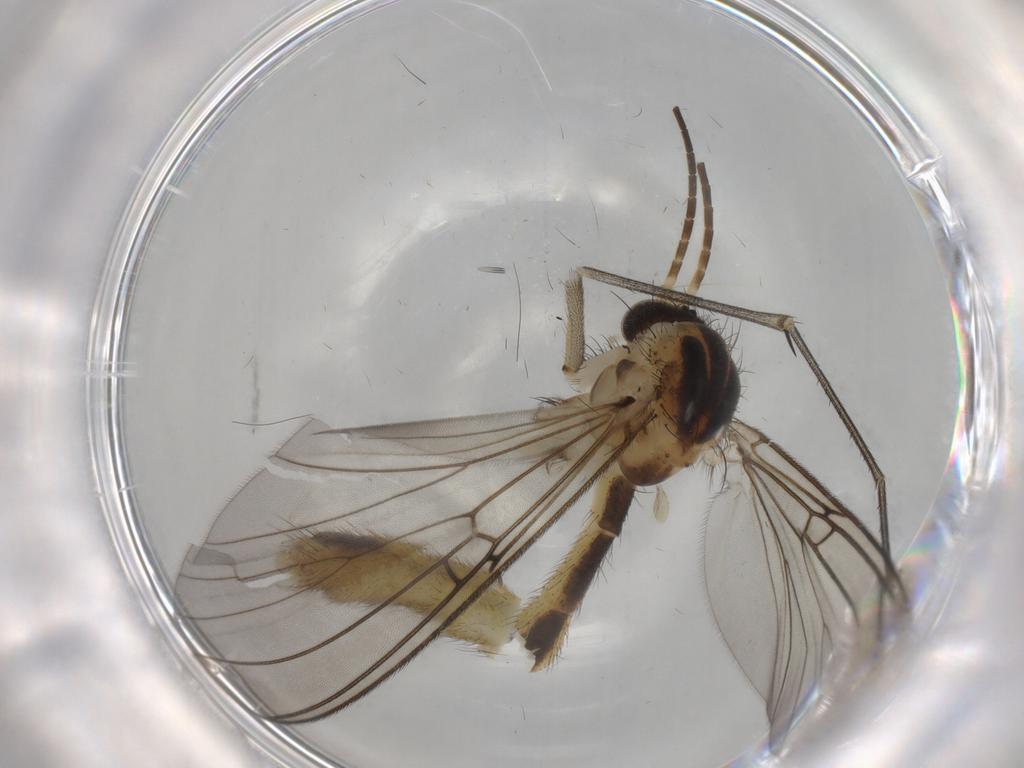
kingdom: Animalia
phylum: Arthropoda
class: Insecta
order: Diptera
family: Mycetophilidae
